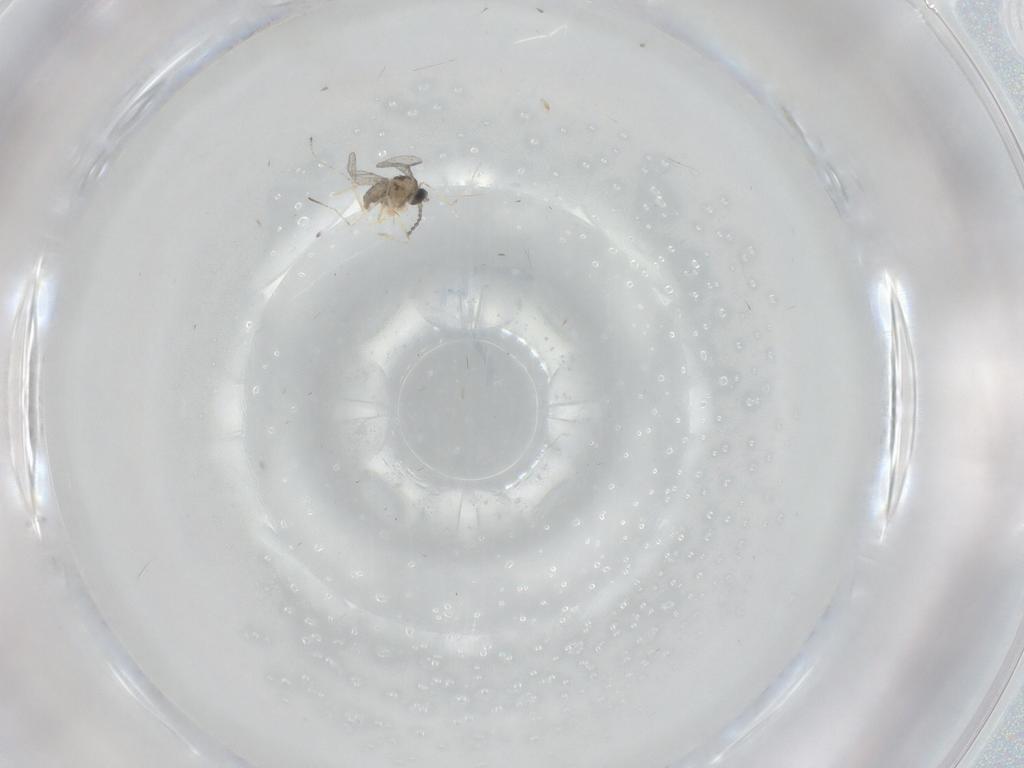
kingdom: Animalia
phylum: Arthropoda
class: Insecta
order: Diptera
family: Cecidomyiidae
